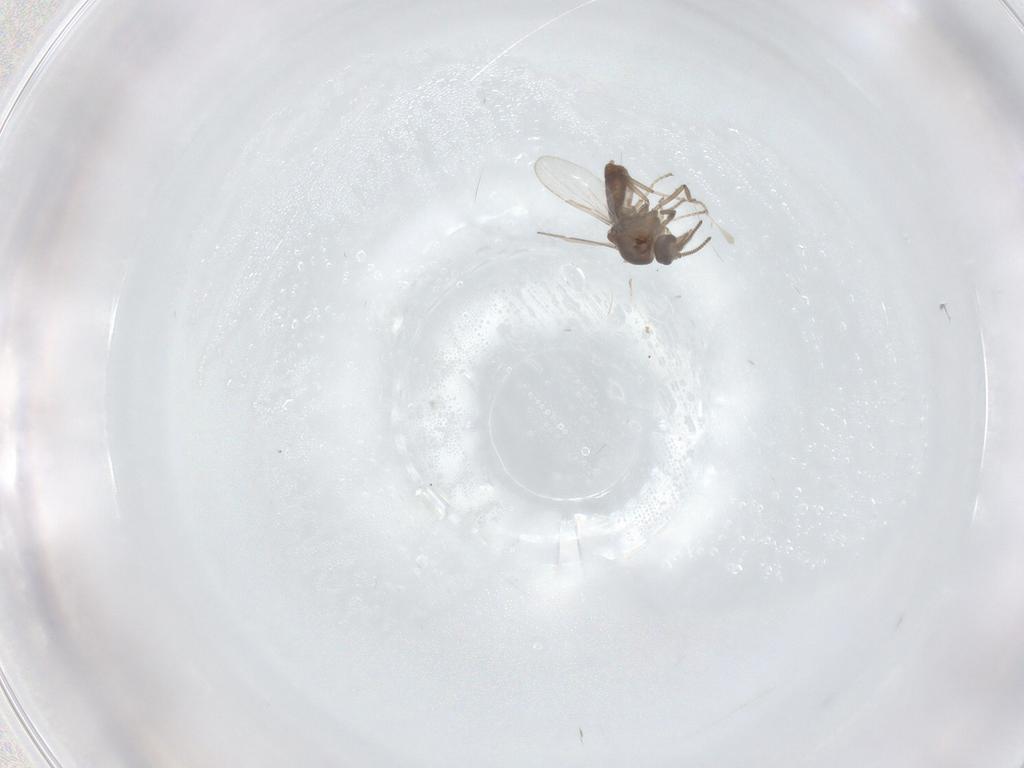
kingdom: Animalia
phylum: Arthropoda
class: Insecta
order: Diptera
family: Ceratopogonidae
